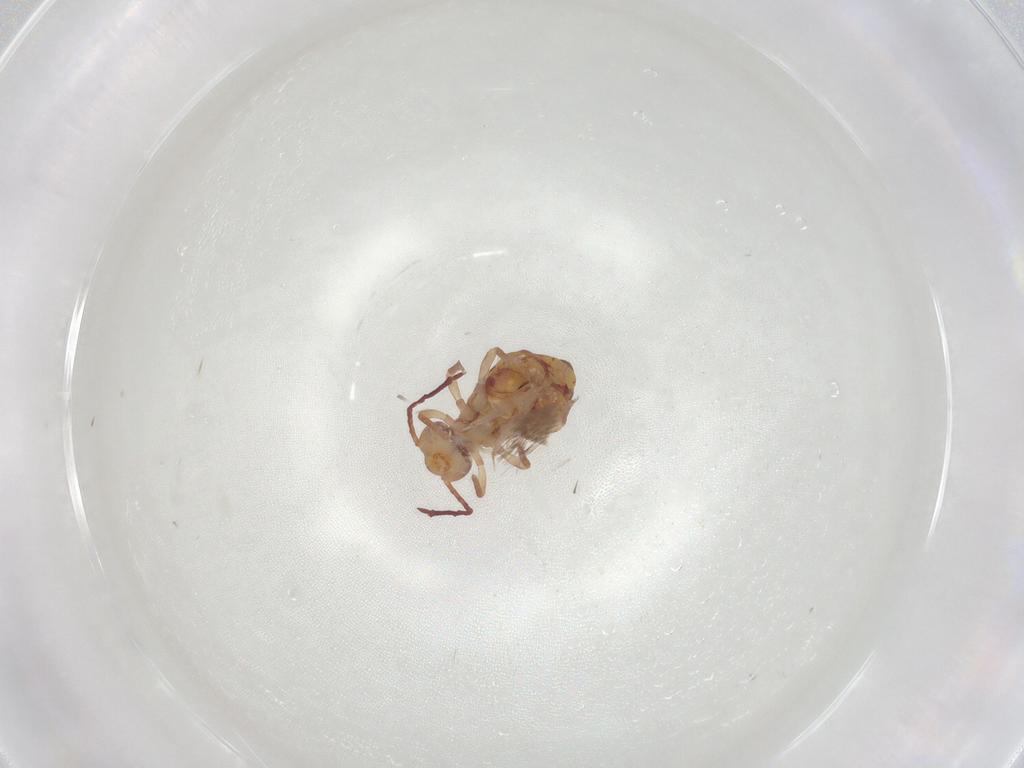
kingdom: Animalia
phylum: Arthropoda
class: Collembola
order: Symphypleona
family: Dicyrtomidae
